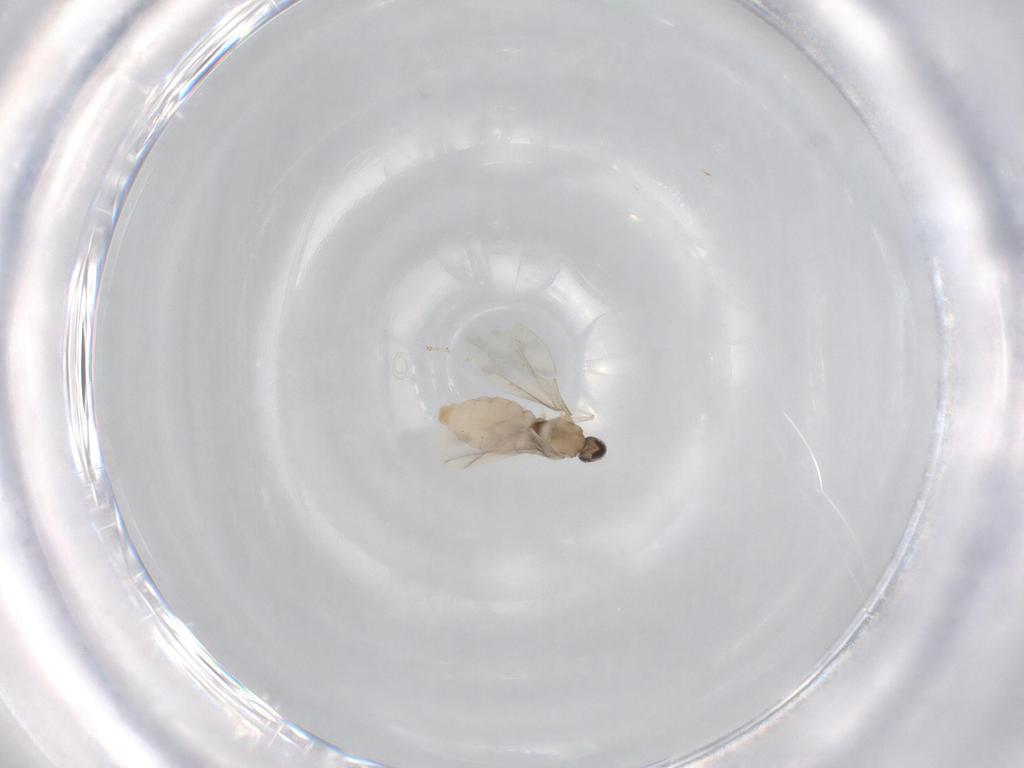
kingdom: Animalia
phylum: Arthropoda
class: Insecta
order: Diptera
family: Cecidomyiidae
